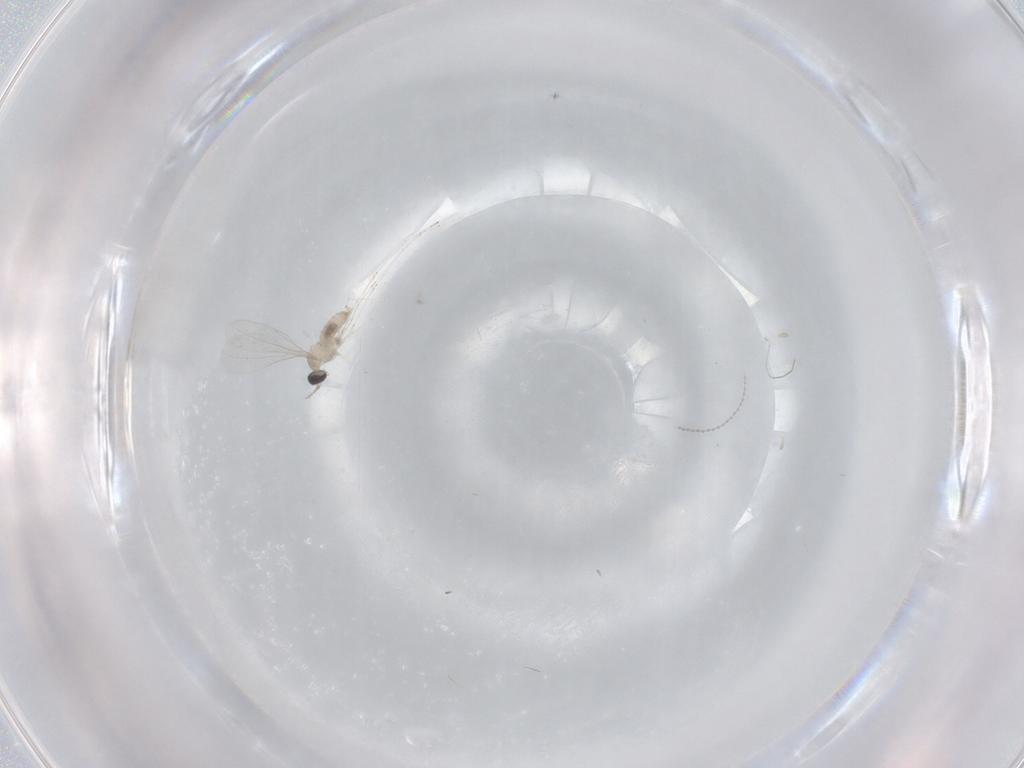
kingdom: Animalia
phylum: Arthropoda
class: Insecta
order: Diptera
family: Cecidomyiidae
